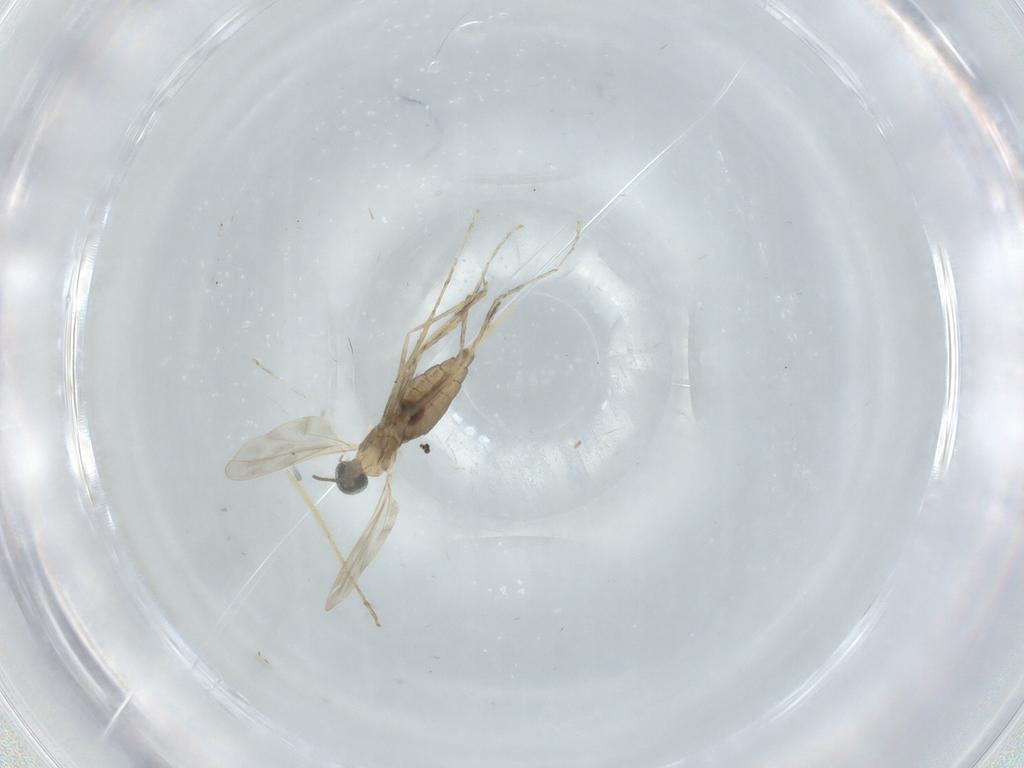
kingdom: Animalia
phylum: Arthropoda
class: Insecta
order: Diptera
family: Cecidomyiidae
